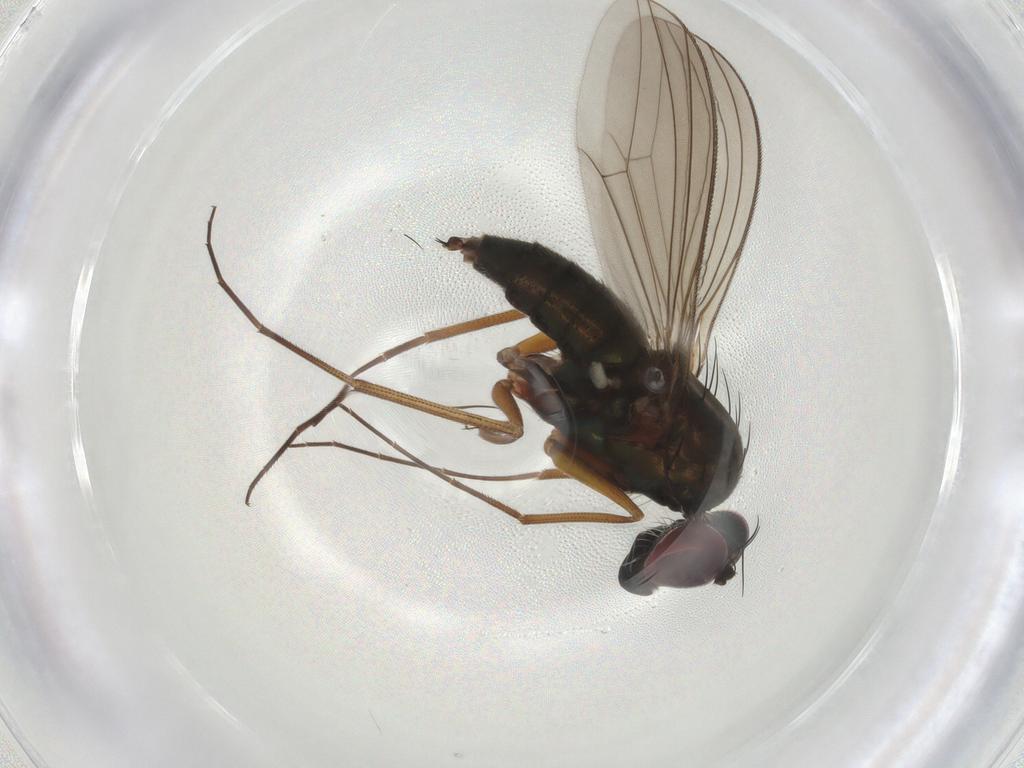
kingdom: Animalia
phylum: Arthropoda
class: Insecta
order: Diptera
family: Dolichopodidae
